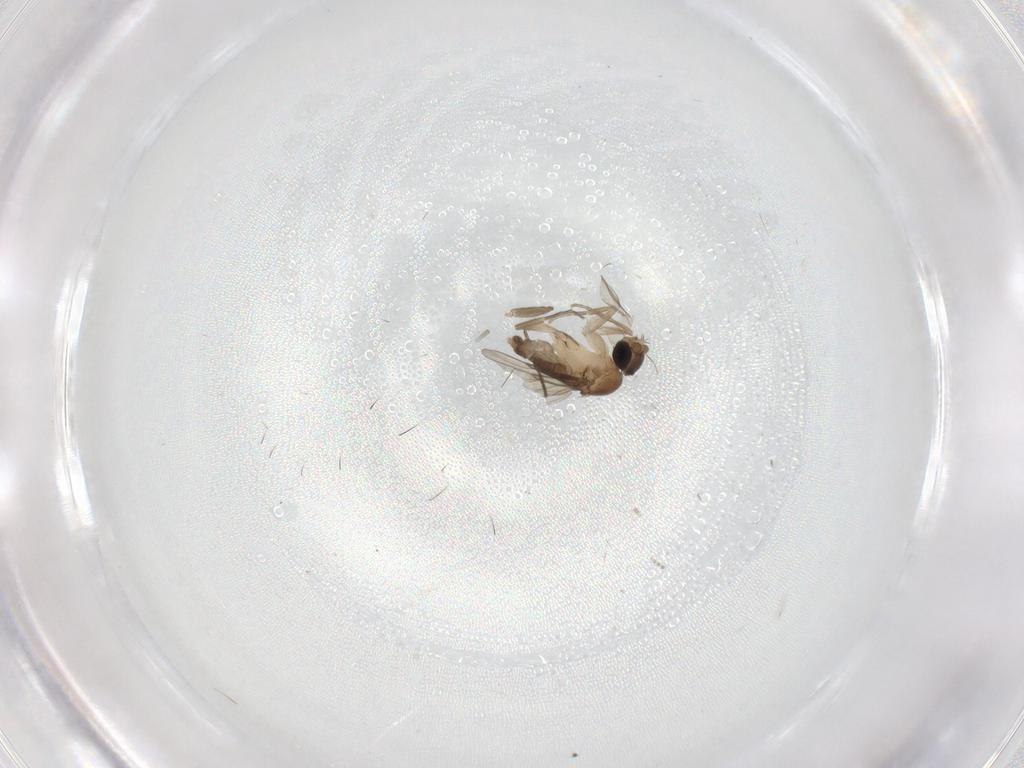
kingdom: Animalia
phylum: Arthropoda
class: Insecta
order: Diptera
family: Phoridae
